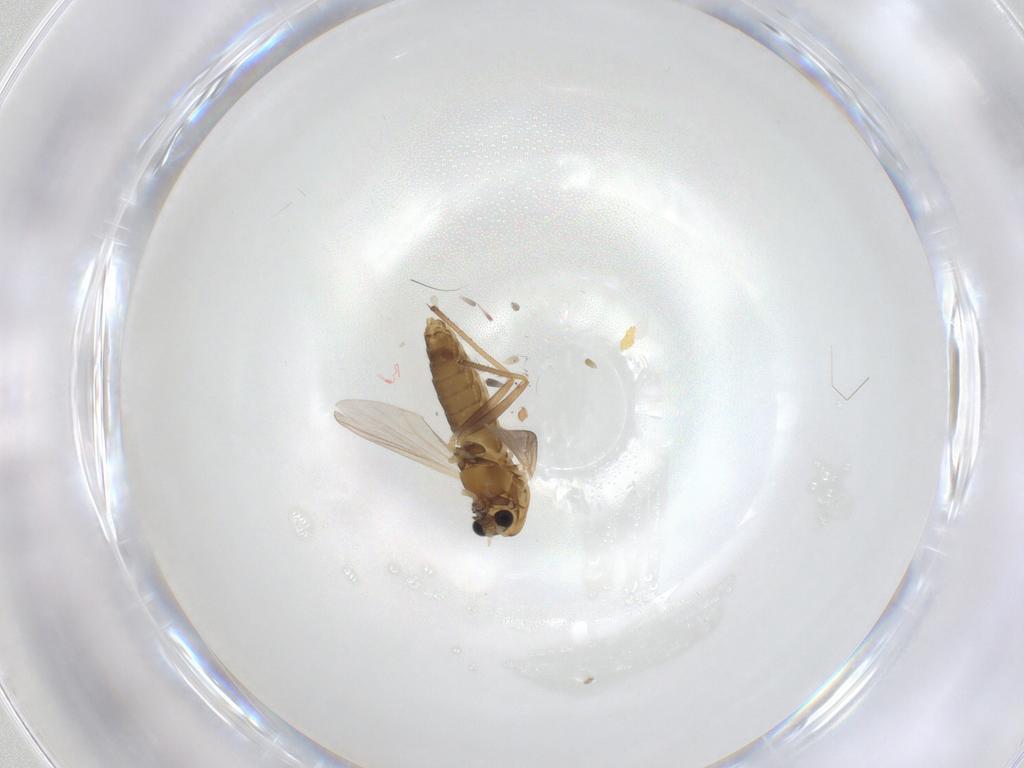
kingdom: Animalia
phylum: Arthropoda
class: Insecta
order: Diptera
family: Chironomidae
